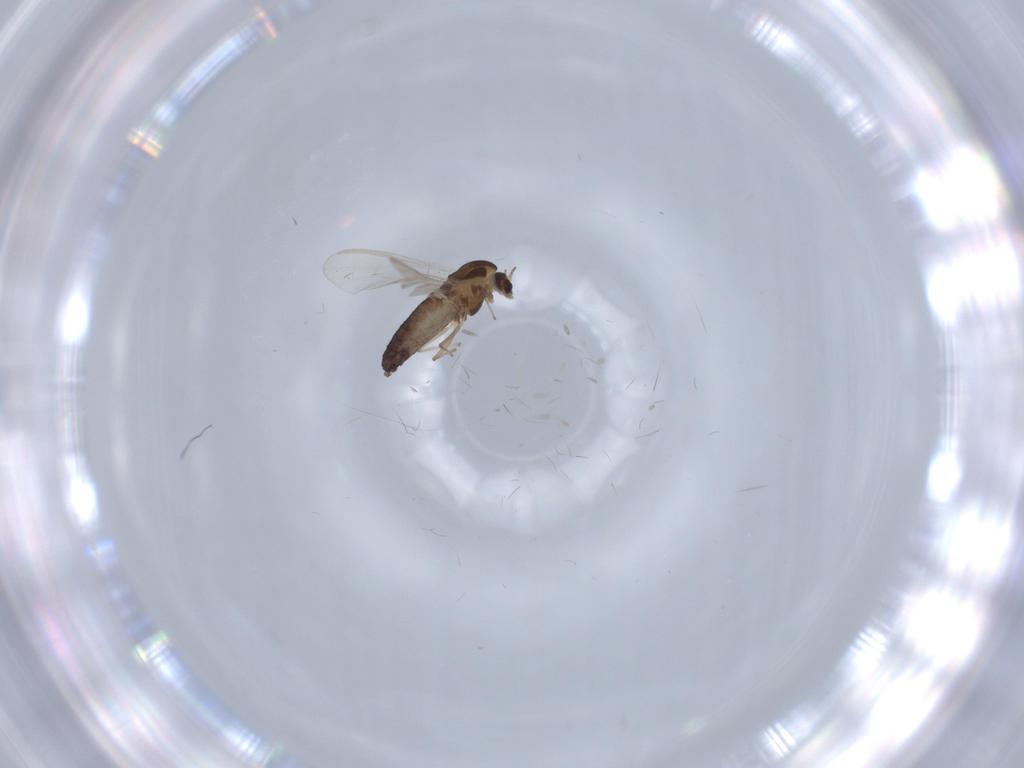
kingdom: Animalia
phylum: Arthropoda
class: Insecta
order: Diptera
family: Chironomidae
